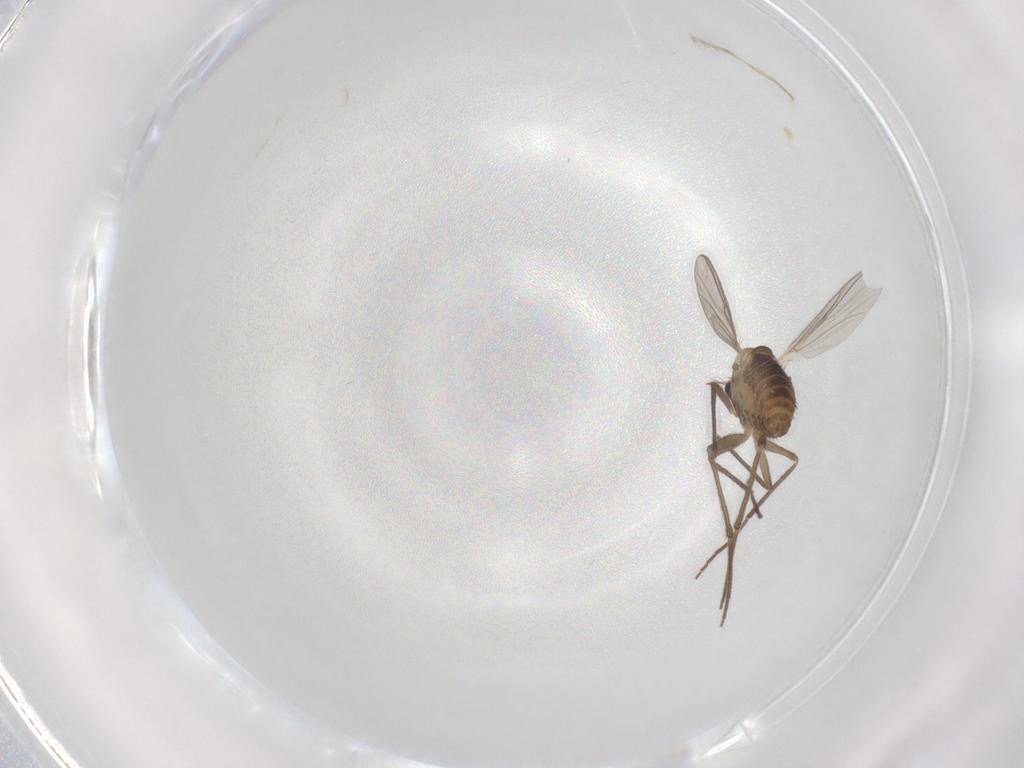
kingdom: Animalia
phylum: Arthropoda
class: Insecta
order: Diptera
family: Chironomidae
